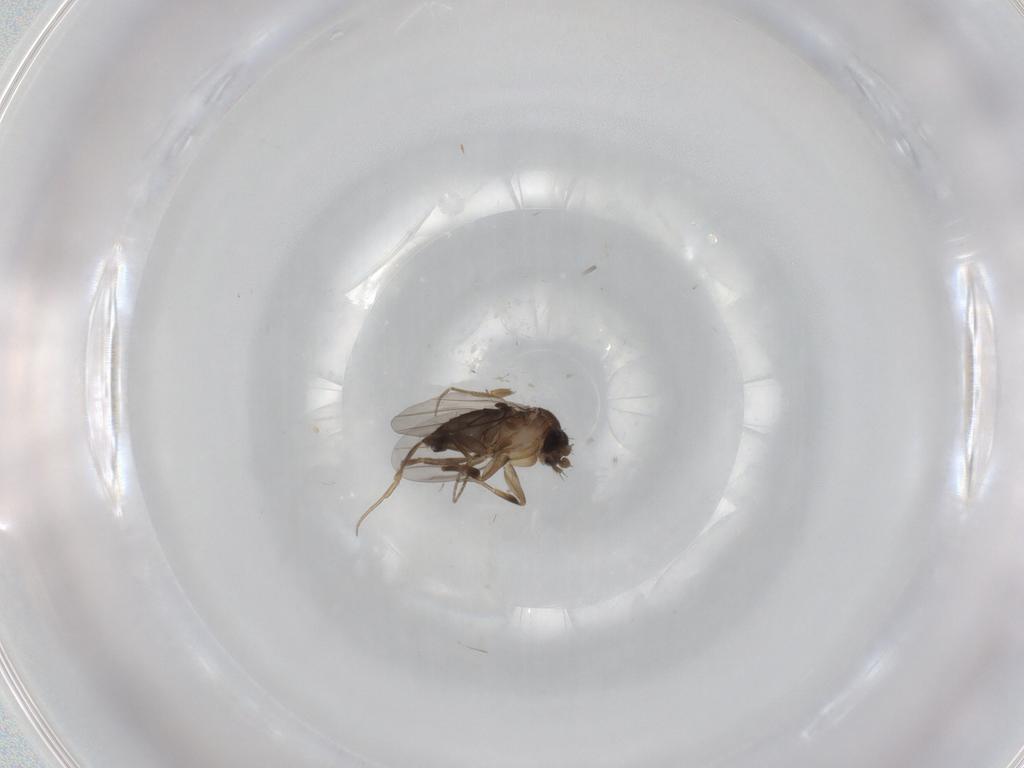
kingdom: Animalia
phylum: Arthropoda
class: Insecta
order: Diptera
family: Phoridae
